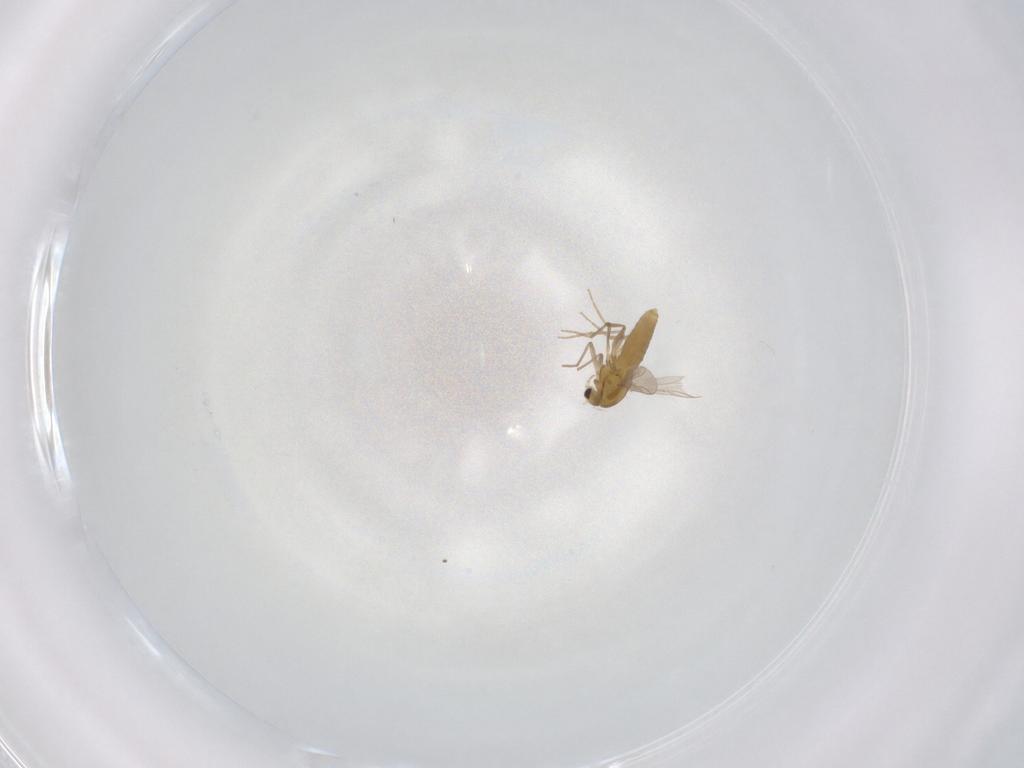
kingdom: Animalia
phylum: Arthropoda
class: Insecta
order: Diptera
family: Chironomidae
